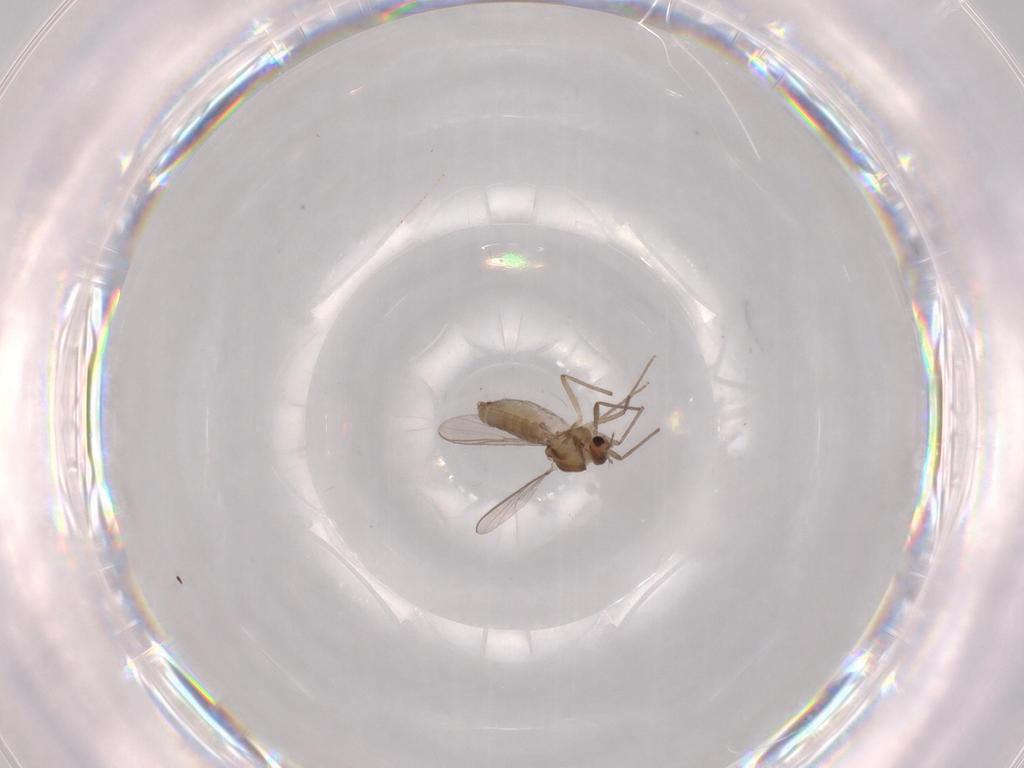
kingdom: Animalia
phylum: Arthropoda
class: Insecta
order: Diptera
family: Chironomidae
